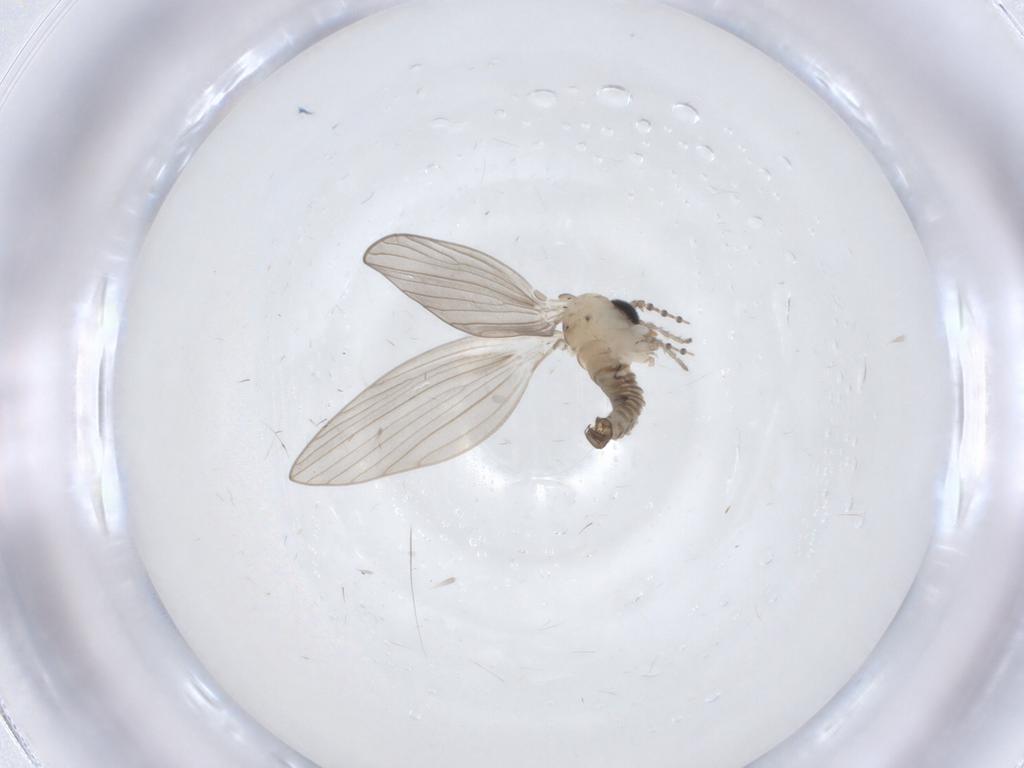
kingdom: Animalia
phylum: Arthropoda
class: Insecta
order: Diptera
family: Psychodidae
